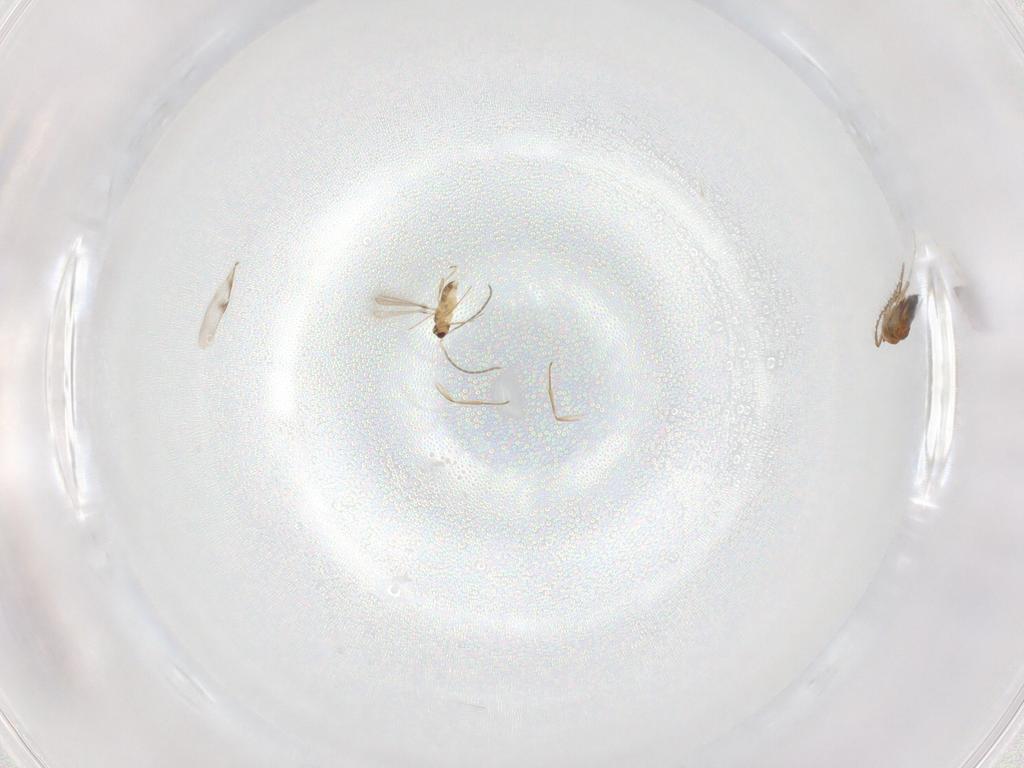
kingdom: Animalia
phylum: Arthropoda
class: Insecta
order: Hymenoptera
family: Encyrtidae
